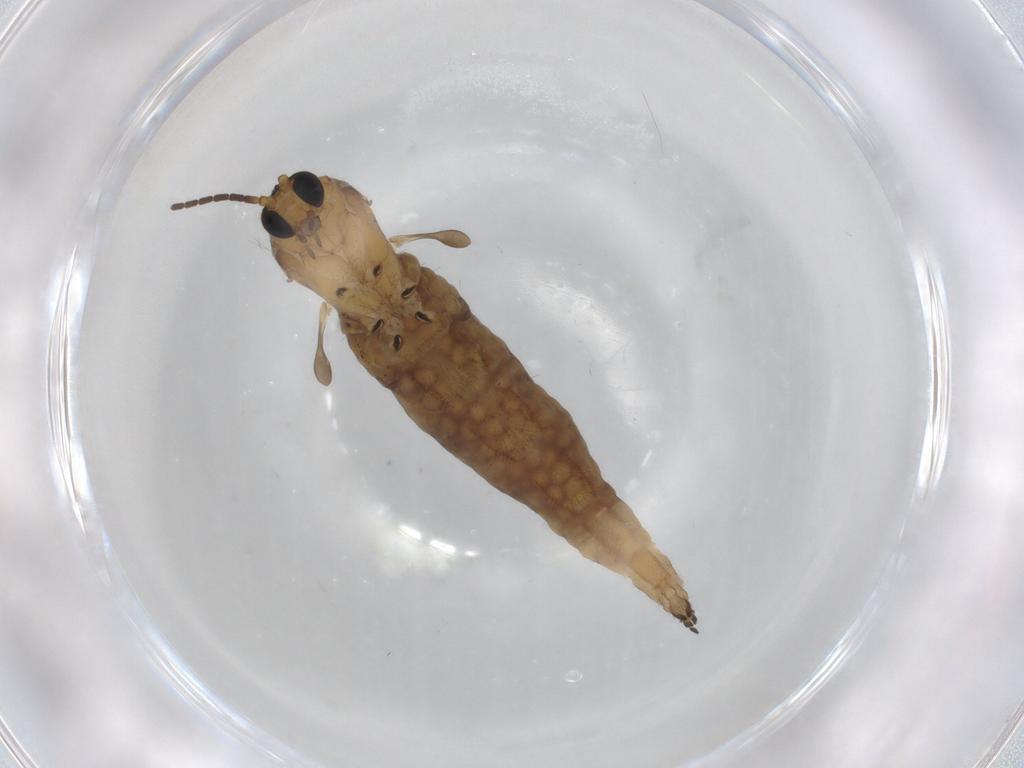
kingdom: Animalia
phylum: Arthropoda
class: Insecta
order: Diptera
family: Sciaridae
